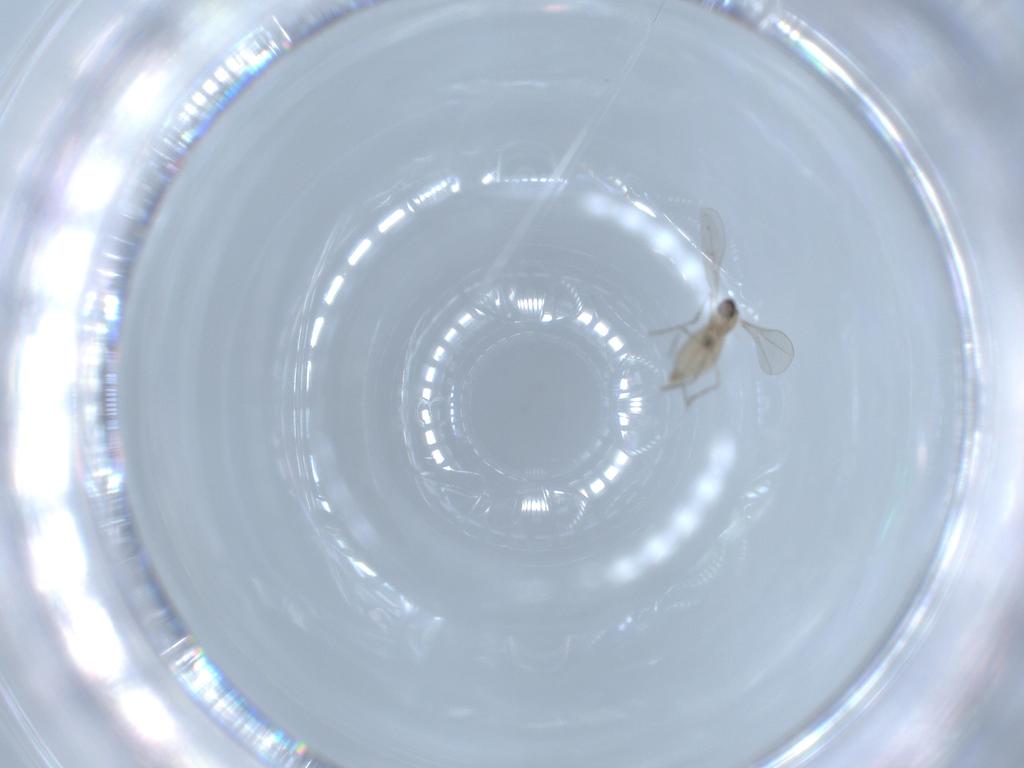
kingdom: Animalia
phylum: Arthropoda
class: Insecta
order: Diptera
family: Cecidomyiidae
